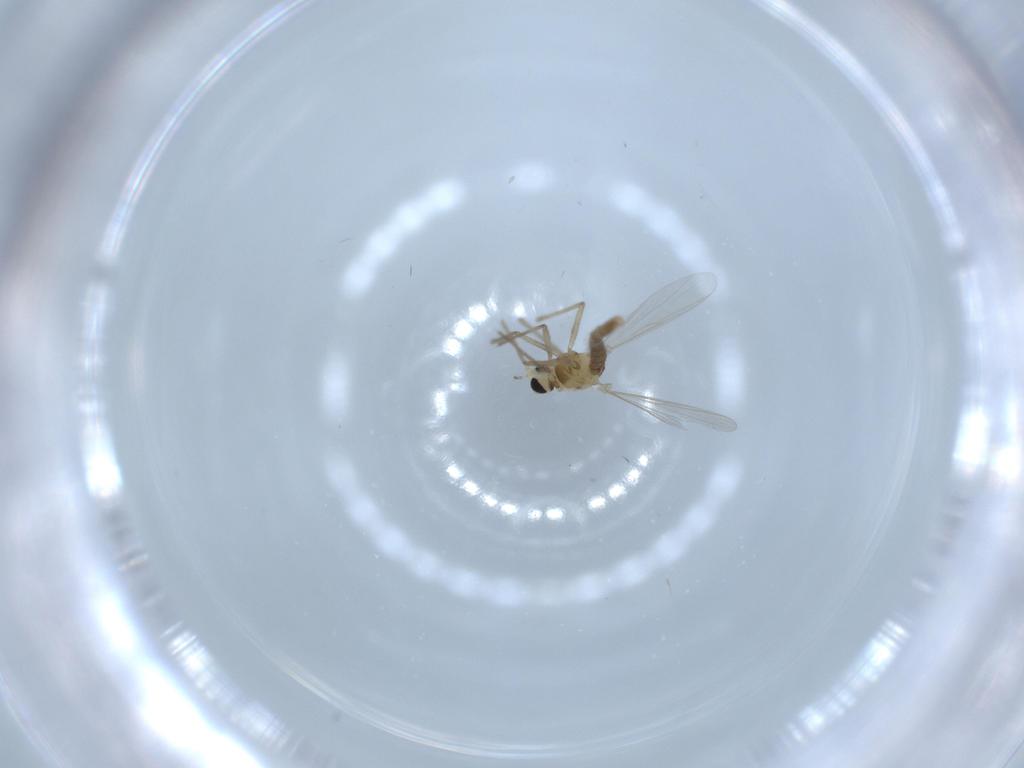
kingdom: Animalia
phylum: Arthropoda
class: Insecta
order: Diptera
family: Chironomidae
